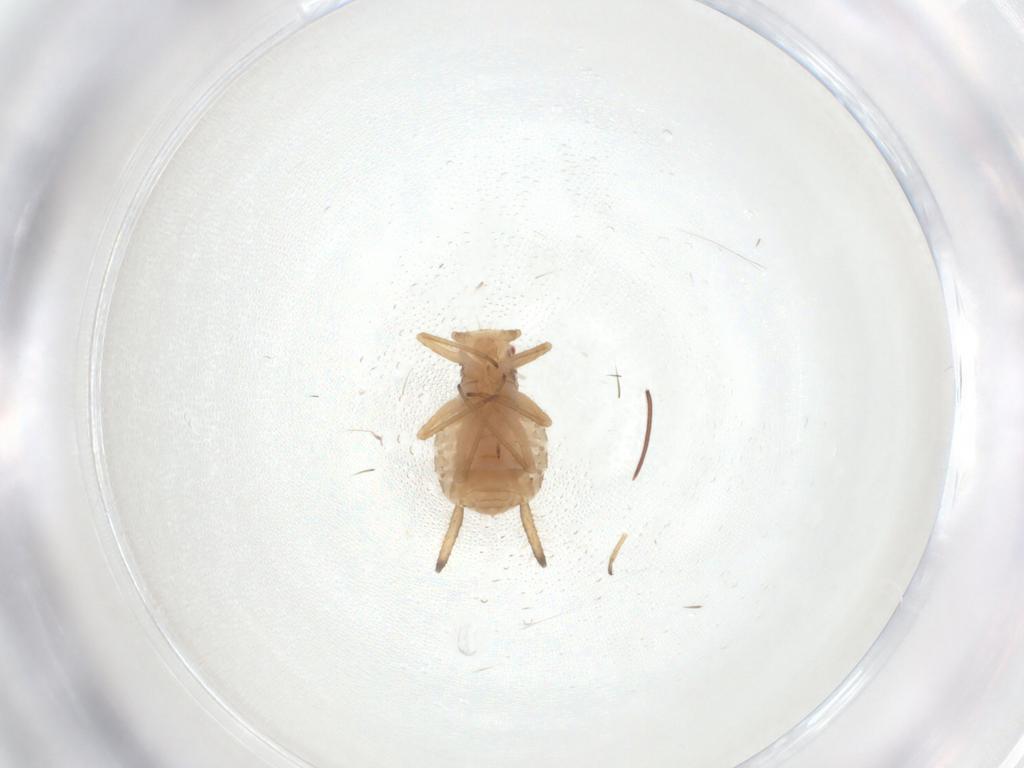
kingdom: Animalia
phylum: Arthropoda
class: Insecta
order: Hemiptera
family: Aphididae
